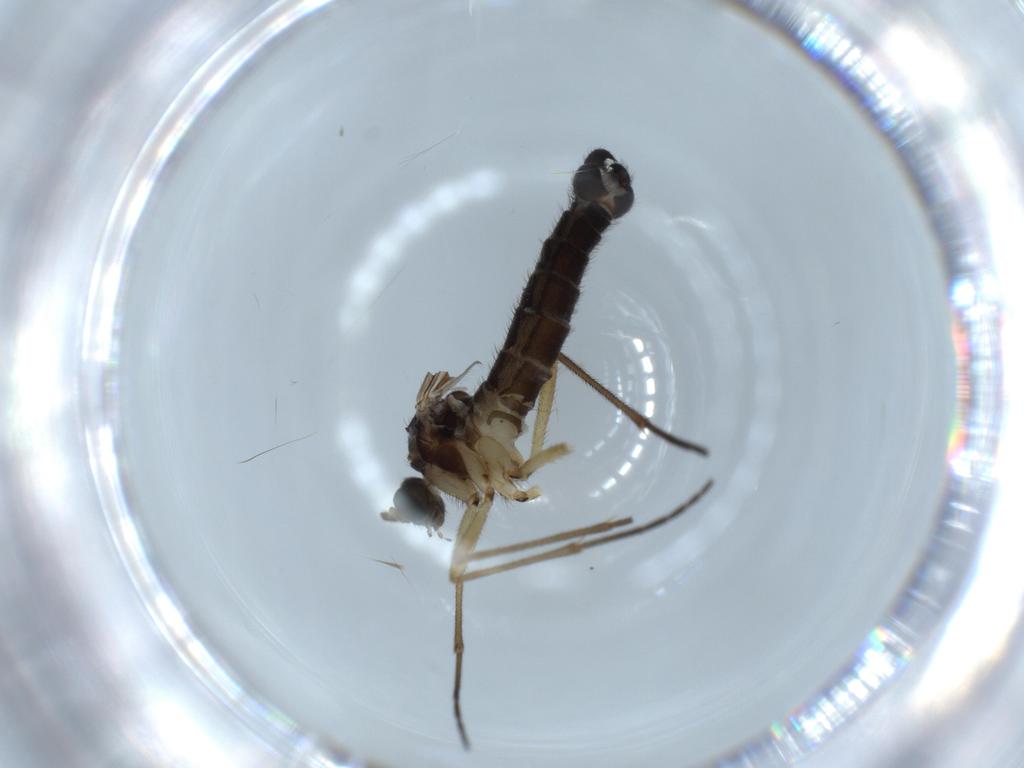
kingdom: Animalia
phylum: Arthropoda
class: Insecta
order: Diptera
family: Sciaridae
